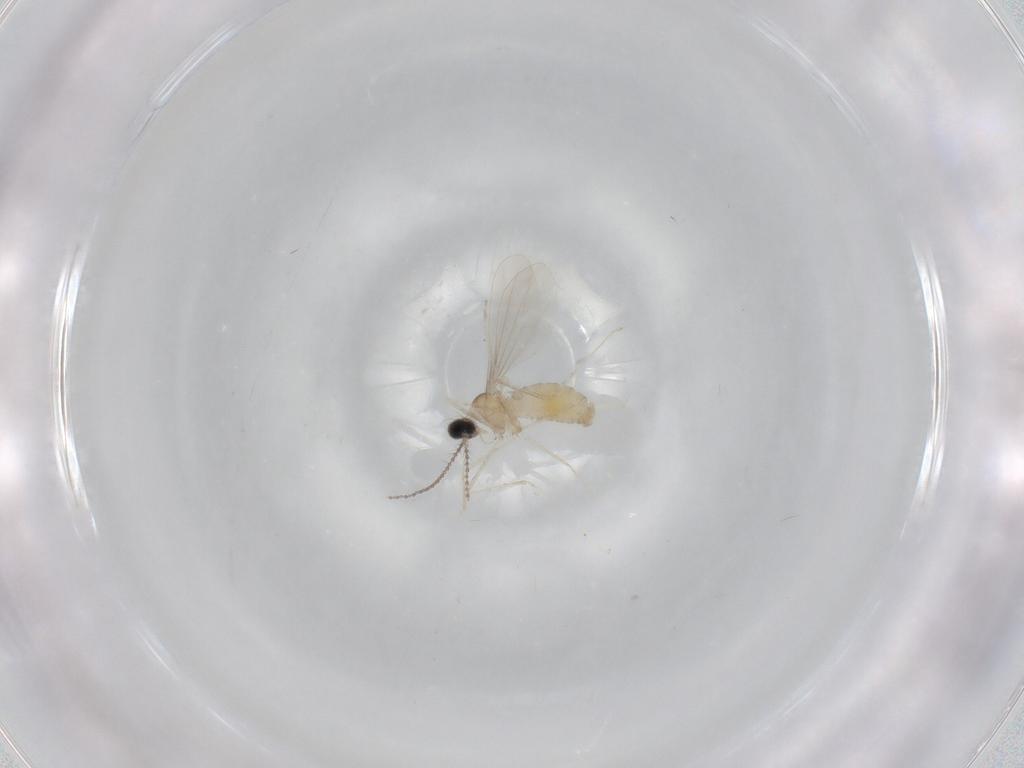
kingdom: Animalia
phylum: Arthropoda
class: Insecta
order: Diptera
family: Cecidomyiidae
